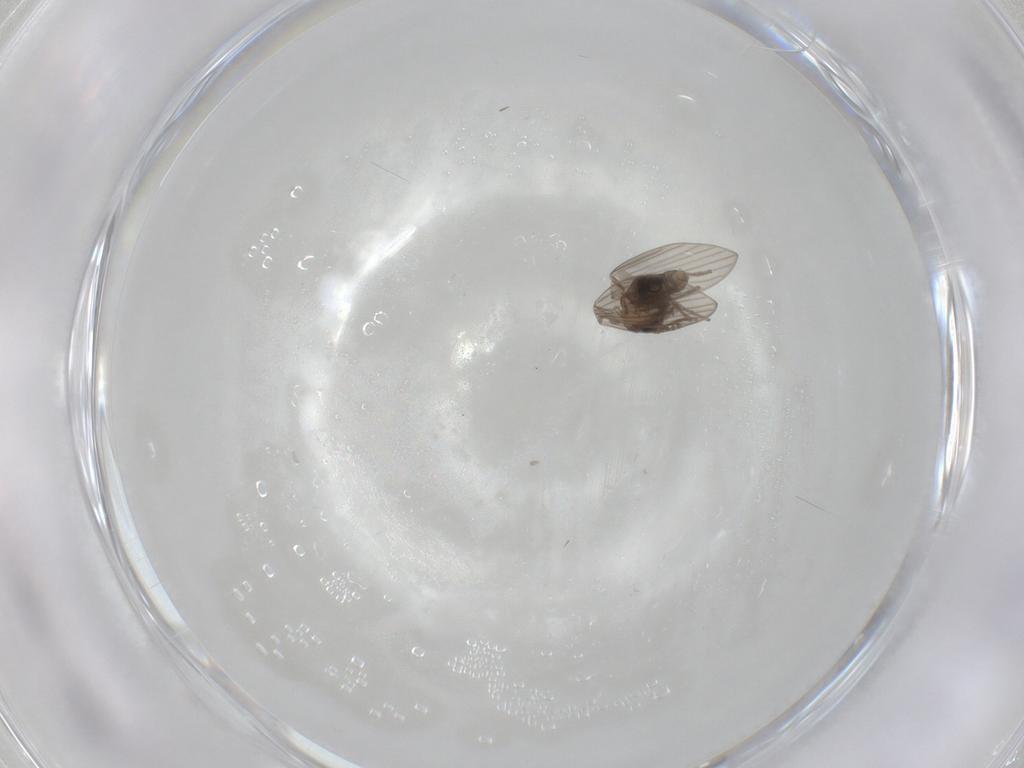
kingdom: Animalia
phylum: Arthropoda
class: Insecta
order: Diptera
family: Psychodidae
